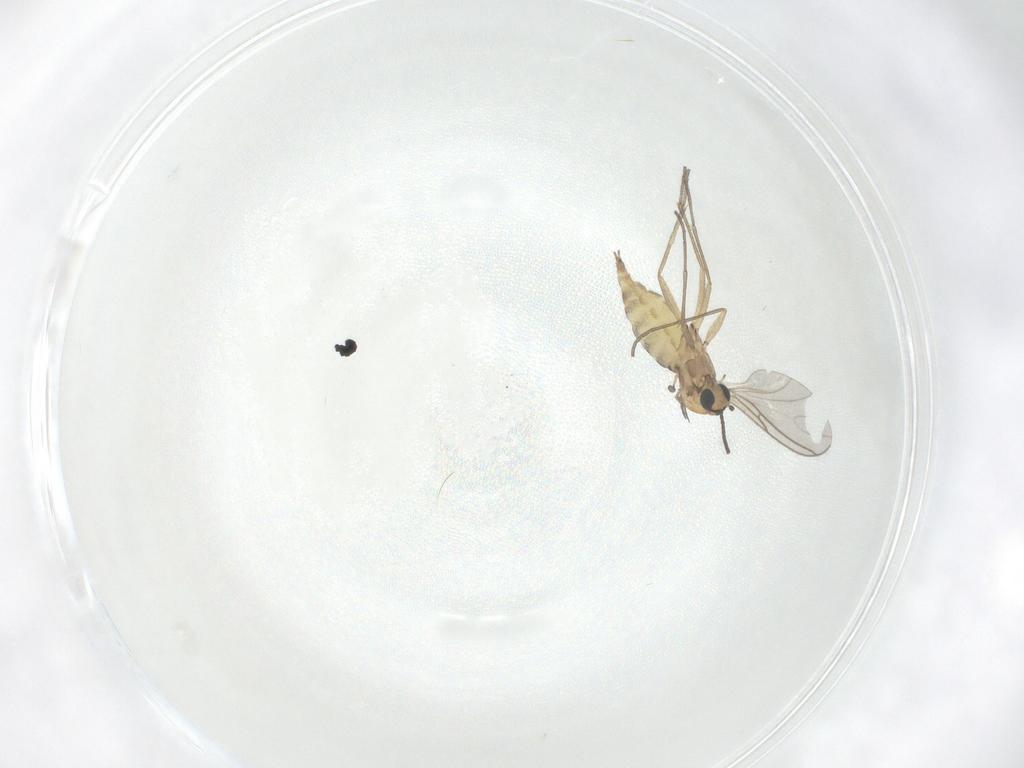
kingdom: Animalia
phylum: Arthropoda
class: Insecta
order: Diptera
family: Sciaridae
